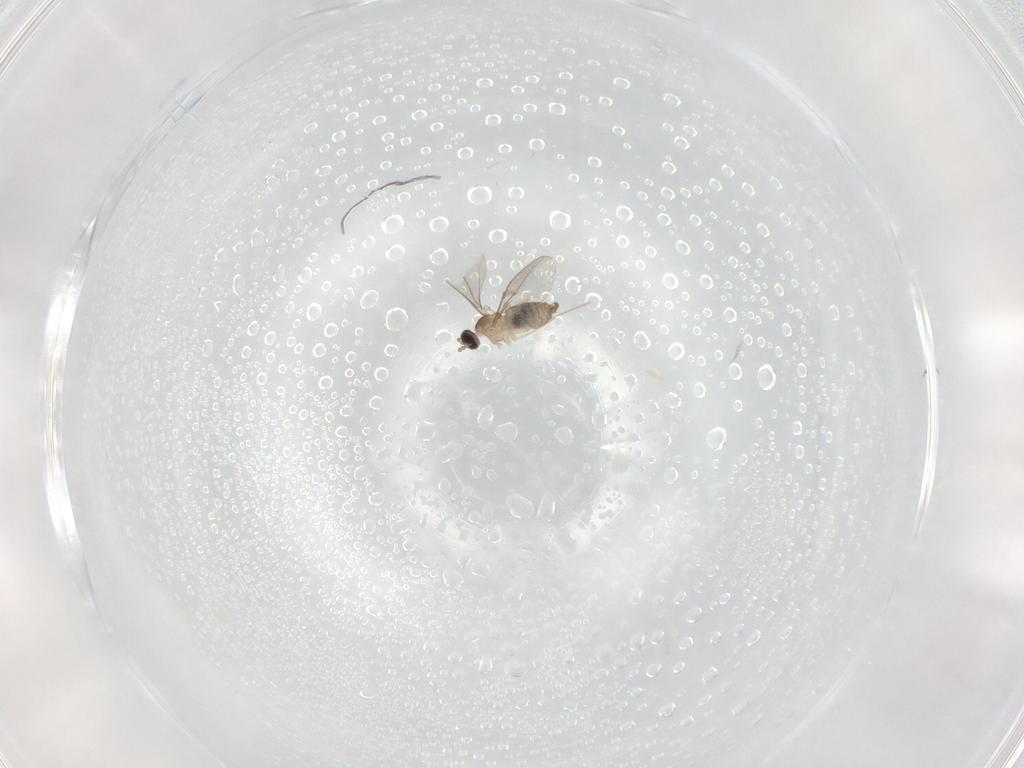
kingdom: Animalia
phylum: Arthropoda
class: Insecta
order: Diptera
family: Cecidomyiidae
